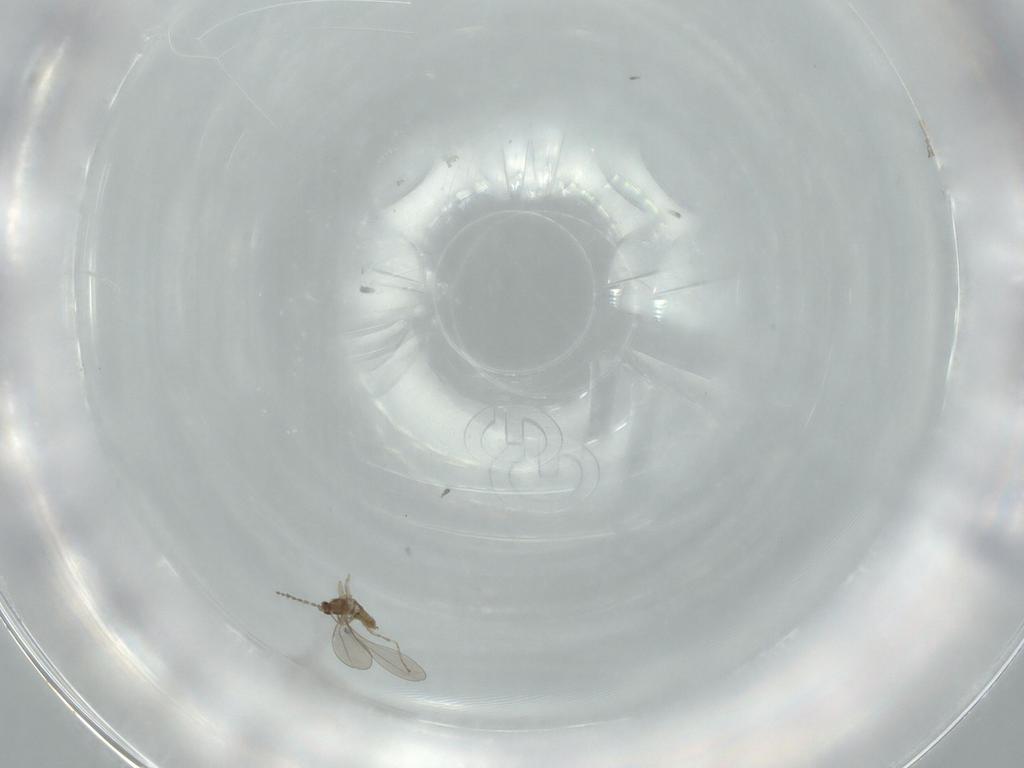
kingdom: Animalia
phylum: Arthropoda
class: Insecta
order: Diptera
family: Cecidomyiidae
